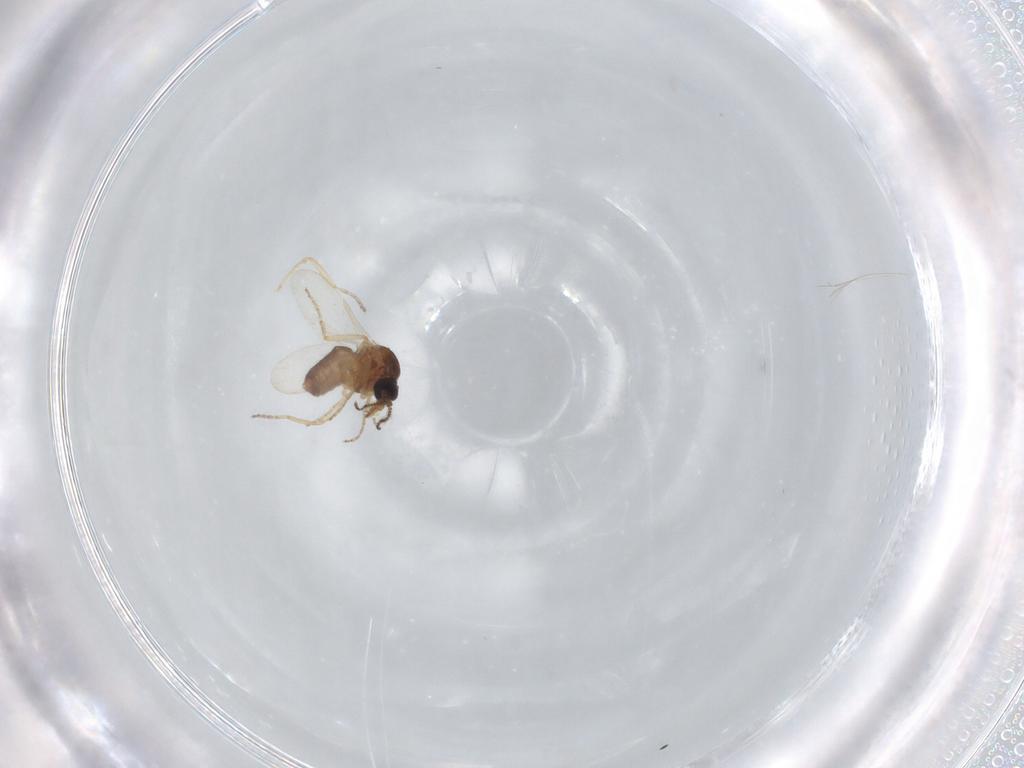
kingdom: Animalia
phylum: Arthropoda
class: Insecta
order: Diptera
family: Ceratopogonidae
